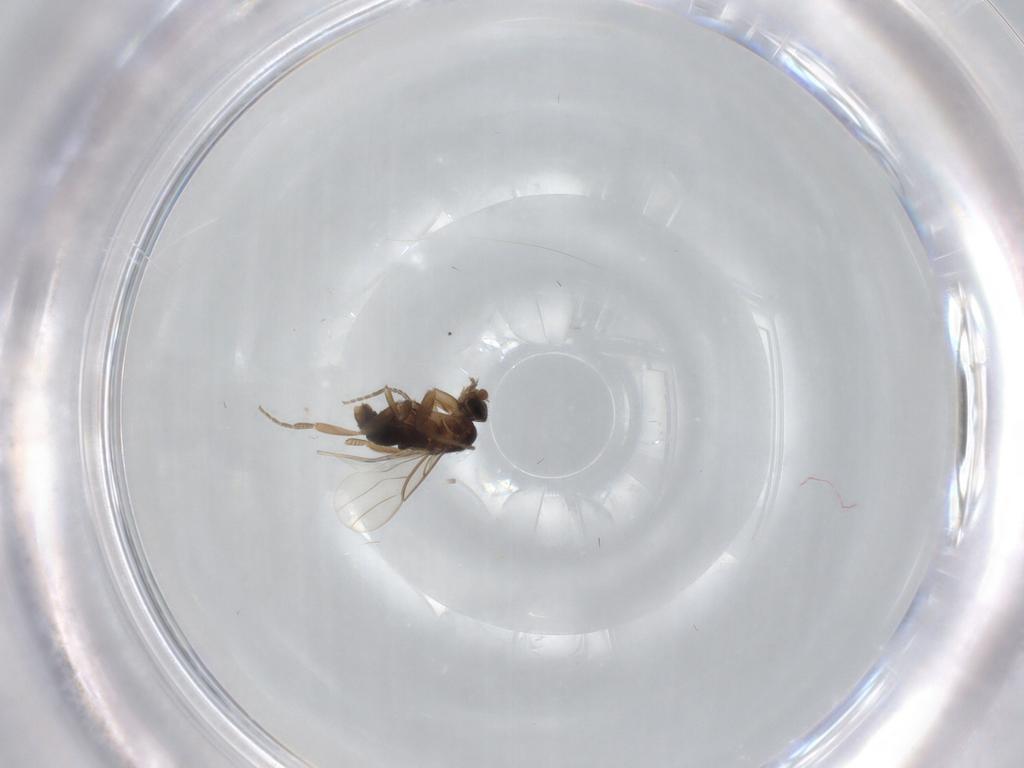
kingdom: Animalia
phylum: Arthropoda
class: Insecta
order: Diptera
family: Phoridae
